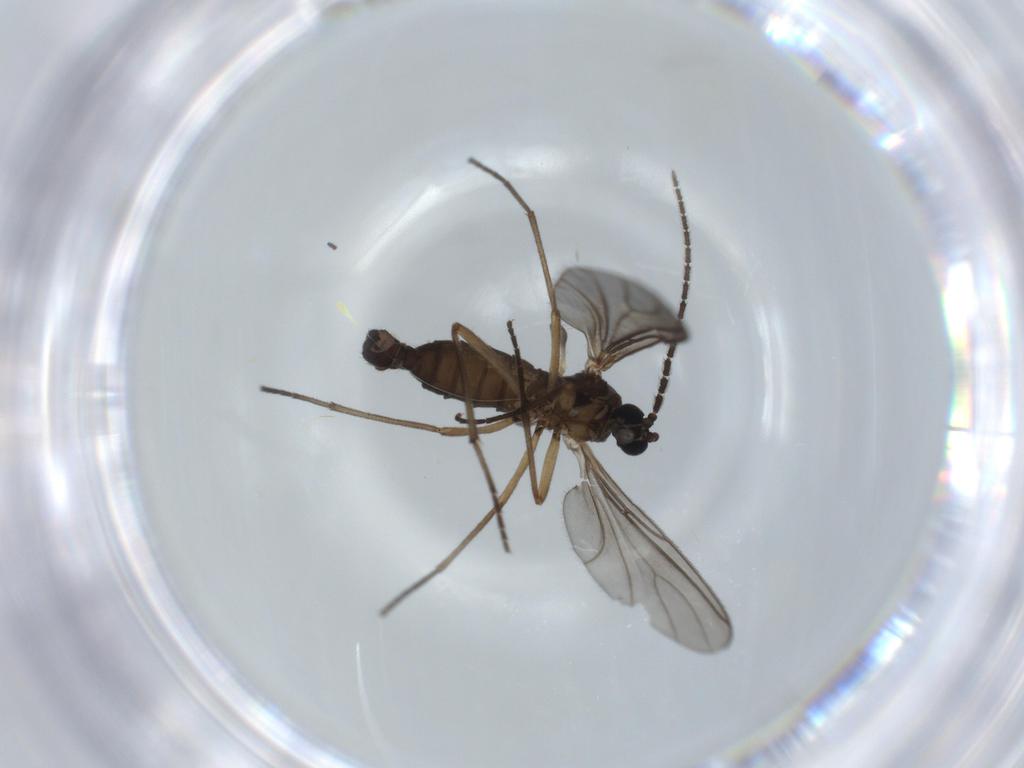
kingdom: Animalia
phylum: Arthropoda
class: Insecta
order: Diptera
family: Sciaridae
